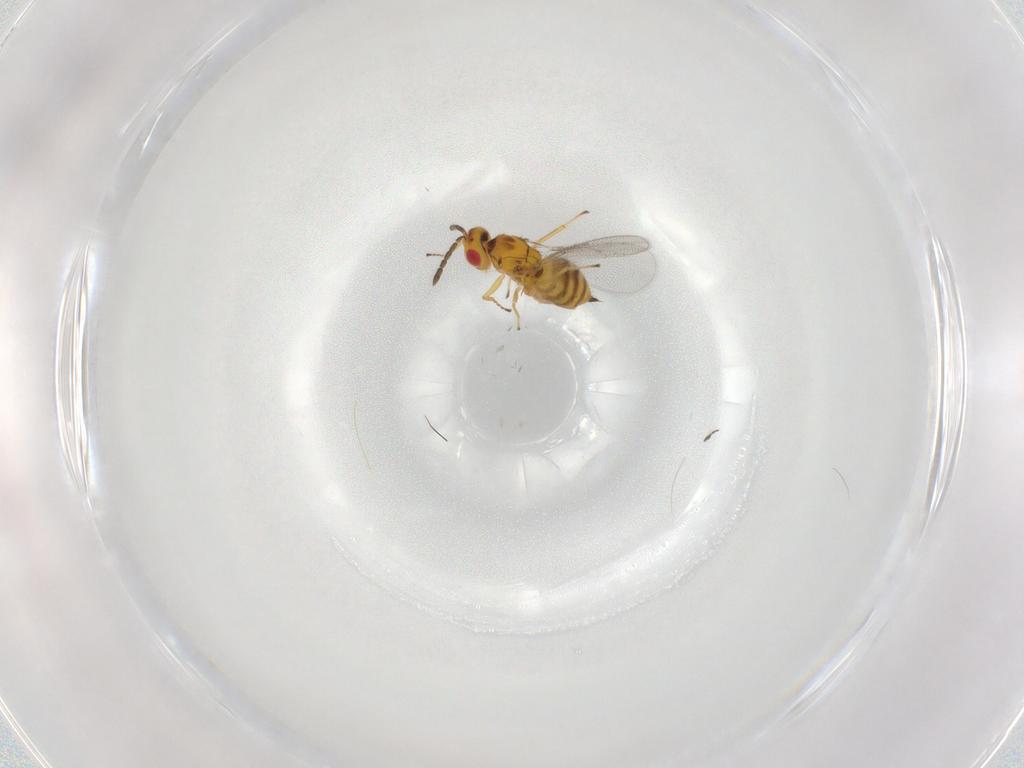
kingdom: Animalia
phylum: Arthropoda
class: Insecta
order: Hymenoptera
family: Eulophidae
